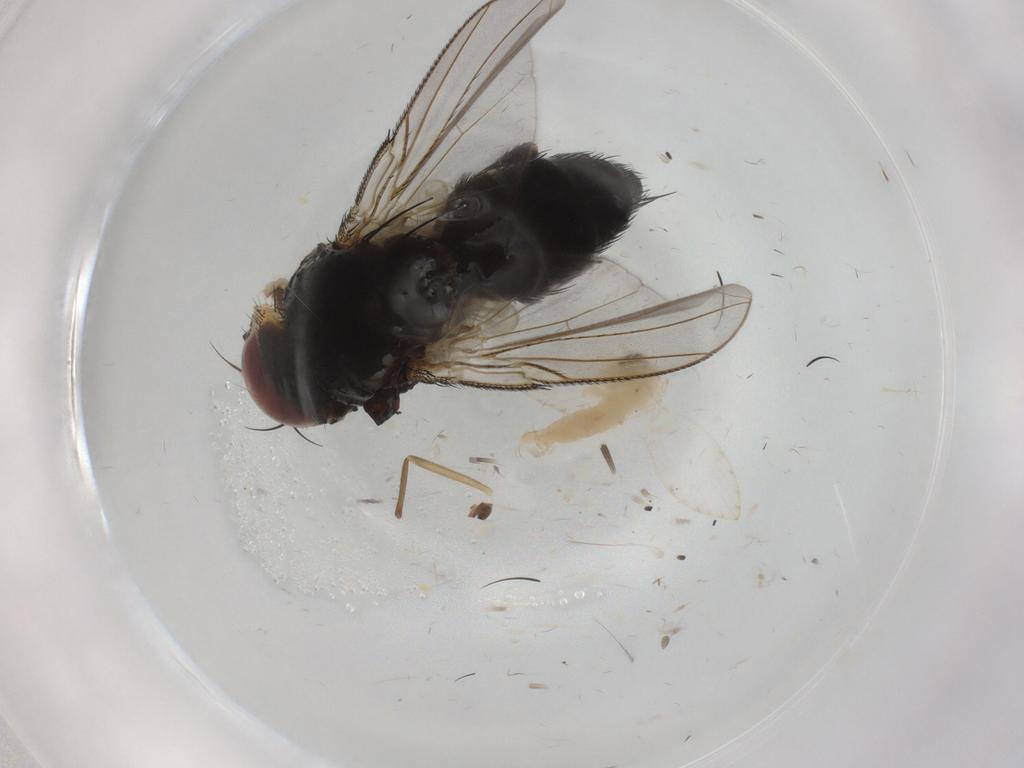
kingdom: Animalia
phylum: Arthropoda
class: Insecta
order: Diptera
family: Tachinidae
